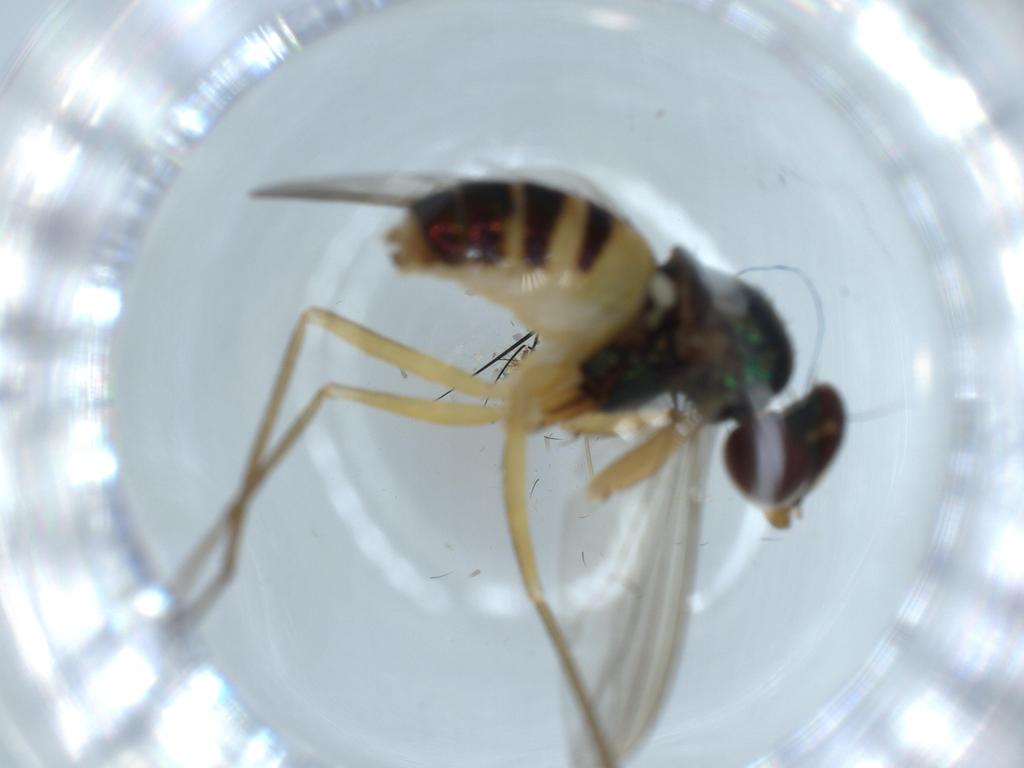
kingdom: Animalia
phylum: Arthropoda
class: Insecta
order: Diptera
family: Sciaridae
